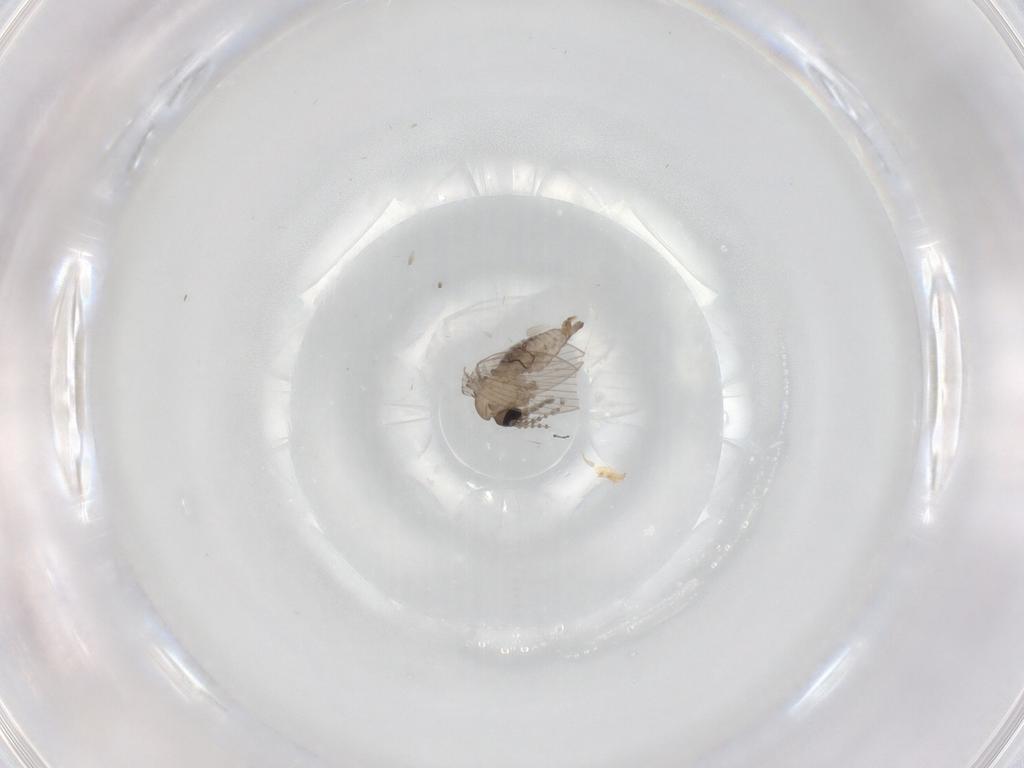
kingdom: Animalia
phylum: Arthropoda
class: Insecta
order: Diptera
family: Psychodidae
